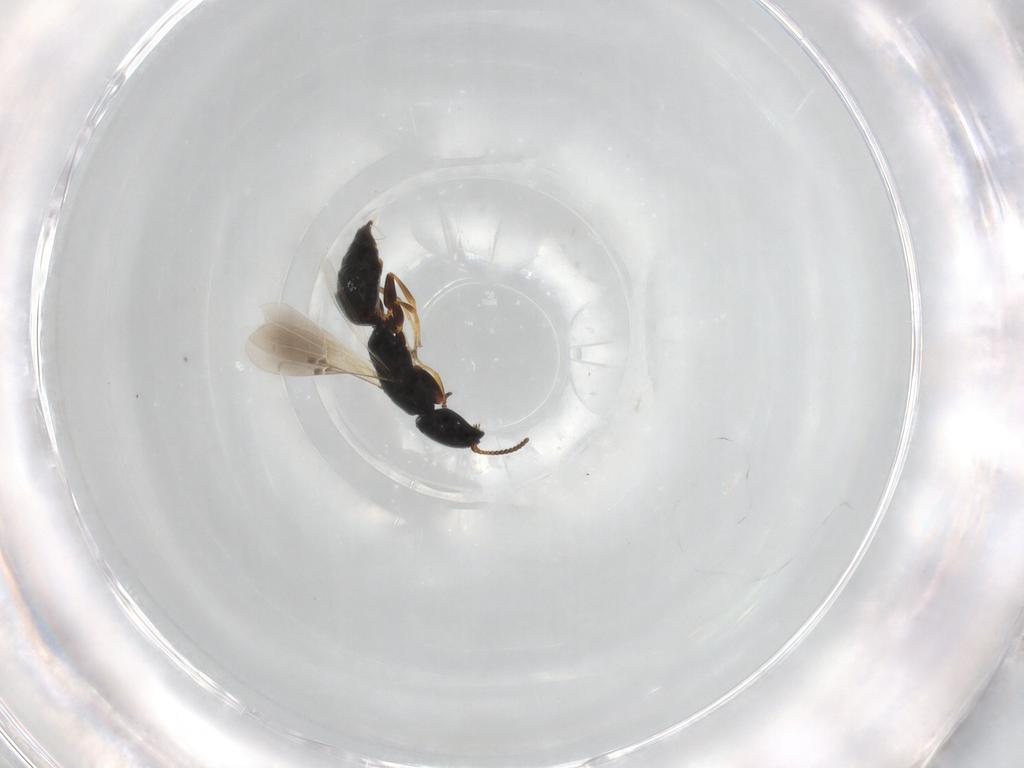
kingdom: Animalia
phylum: Arthropoda
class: Insecta
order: Hymenoptera
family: Bethylidae
